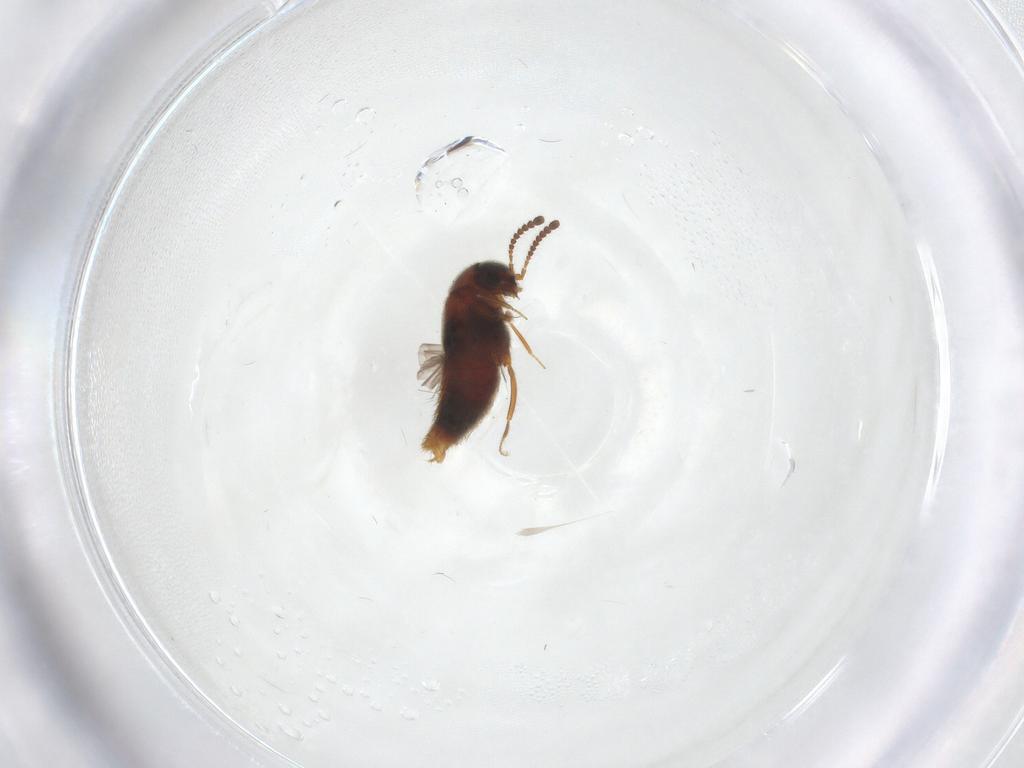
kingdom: Animalia
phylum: Arthropoda
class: Insecta
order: Coleoptera
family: Staphylinidae
